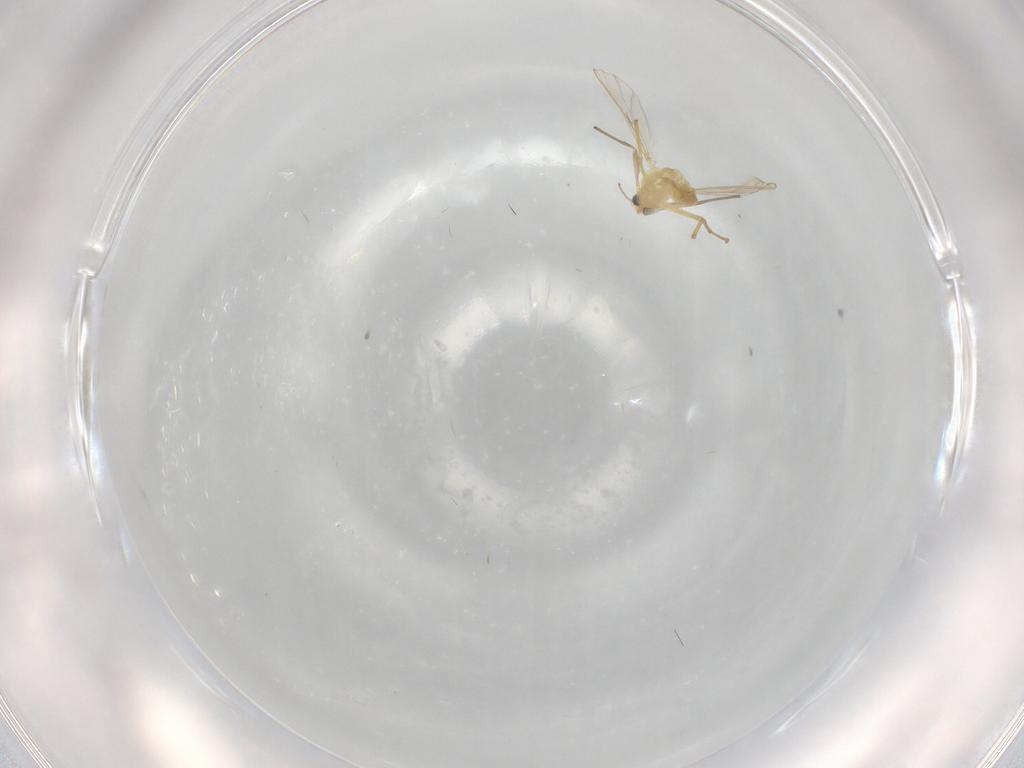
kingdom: Animalia
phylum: Arthropoda
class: Insecta
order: Diptera
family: Chironomidae
